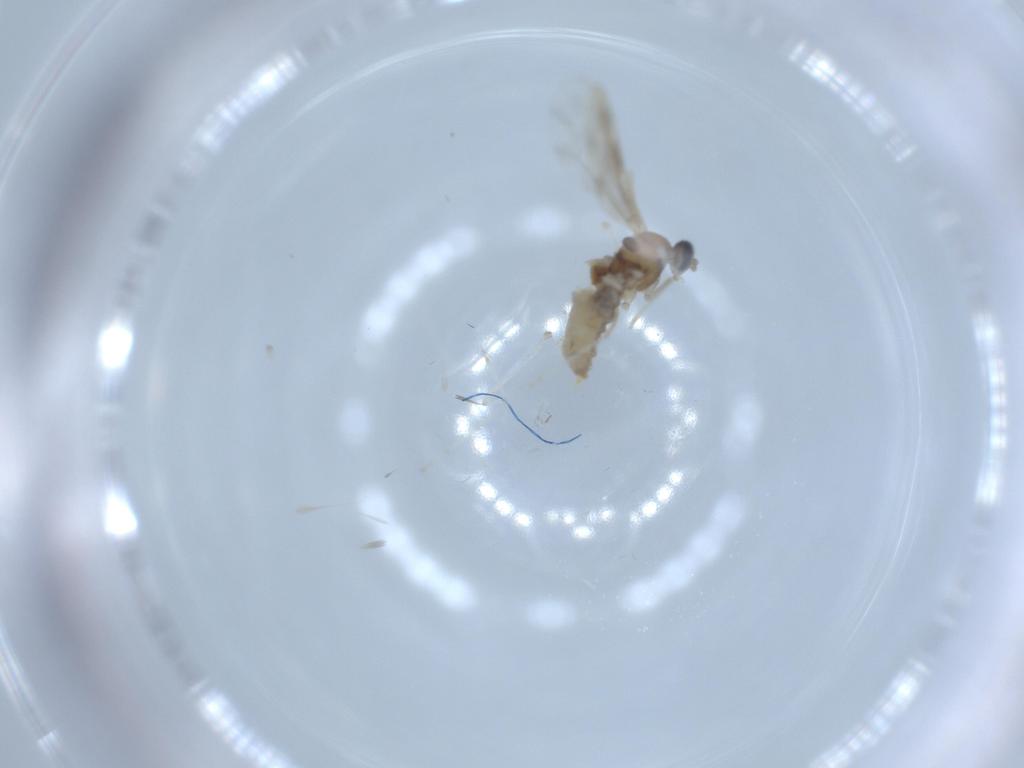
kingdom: Animalia
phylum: Arthropoda
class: Insecta
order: Diptera
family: Cecidomyiidae
